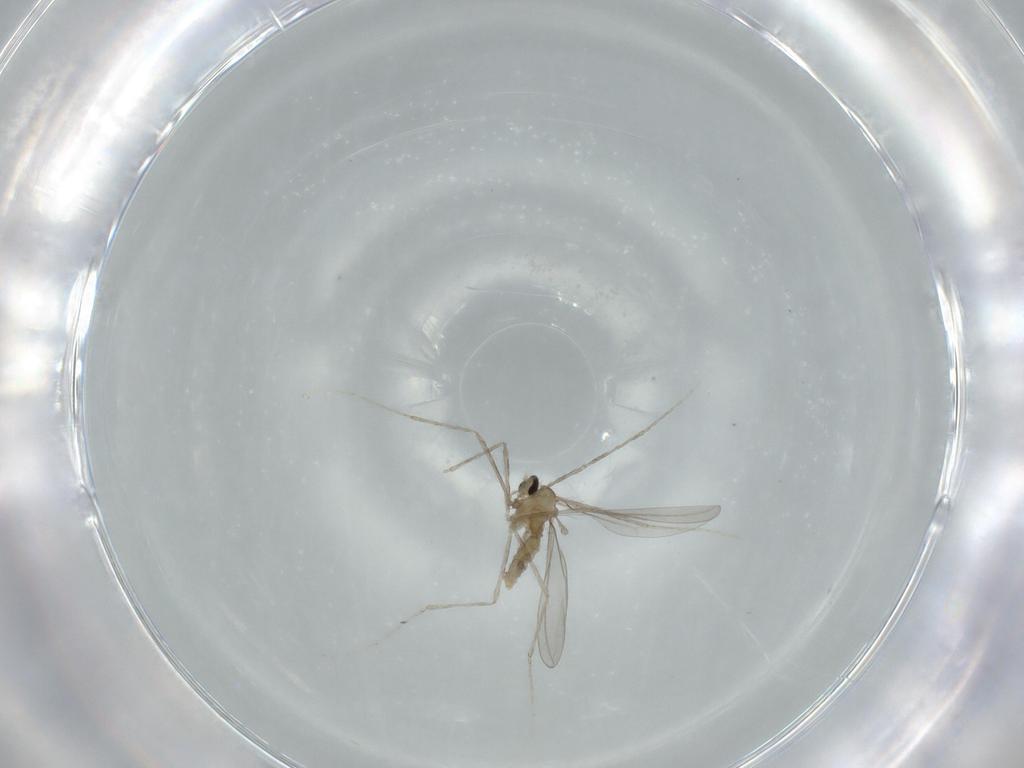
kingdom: Animalia
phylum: Arthropoda
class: Insecta
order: Diptera
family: Cecidomyiidae
